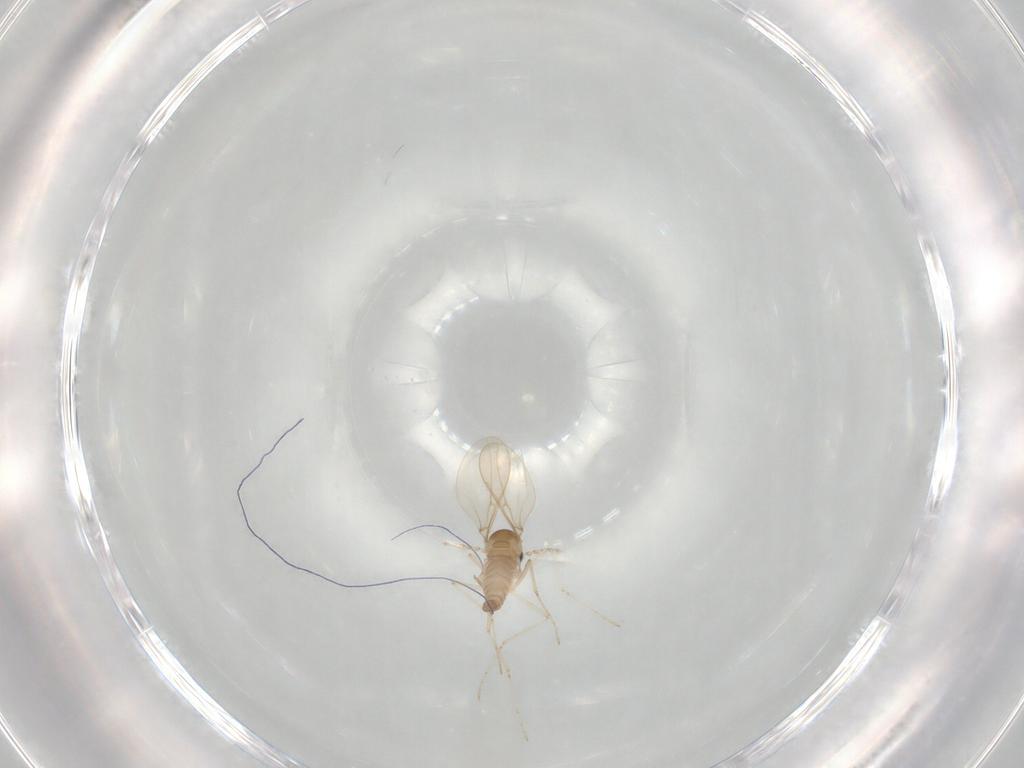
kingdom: Animalia
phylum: Arthropoda
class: Insecta
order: Diptera
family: Cecidomyiidae
